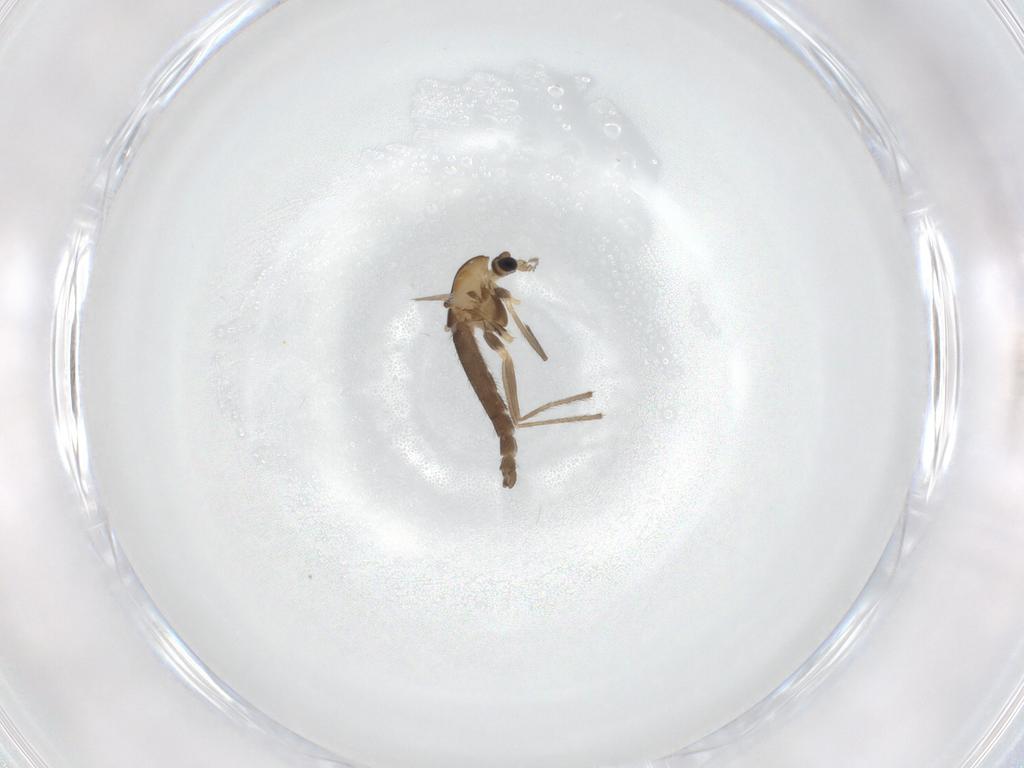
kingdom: Animalia
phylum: Arthropoda
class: Insecta
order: Diptera
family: Chironomidae
